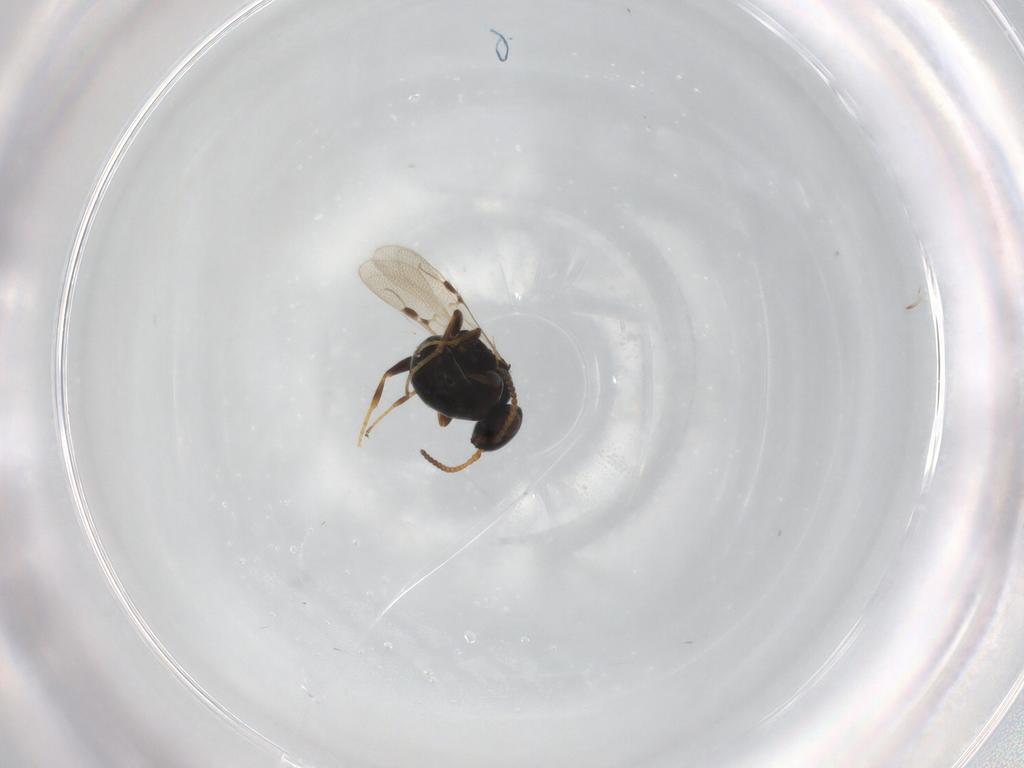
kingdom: Animalia
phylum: Arthropoda
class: Insecta
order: Hymenoptera
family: Bethylidae
